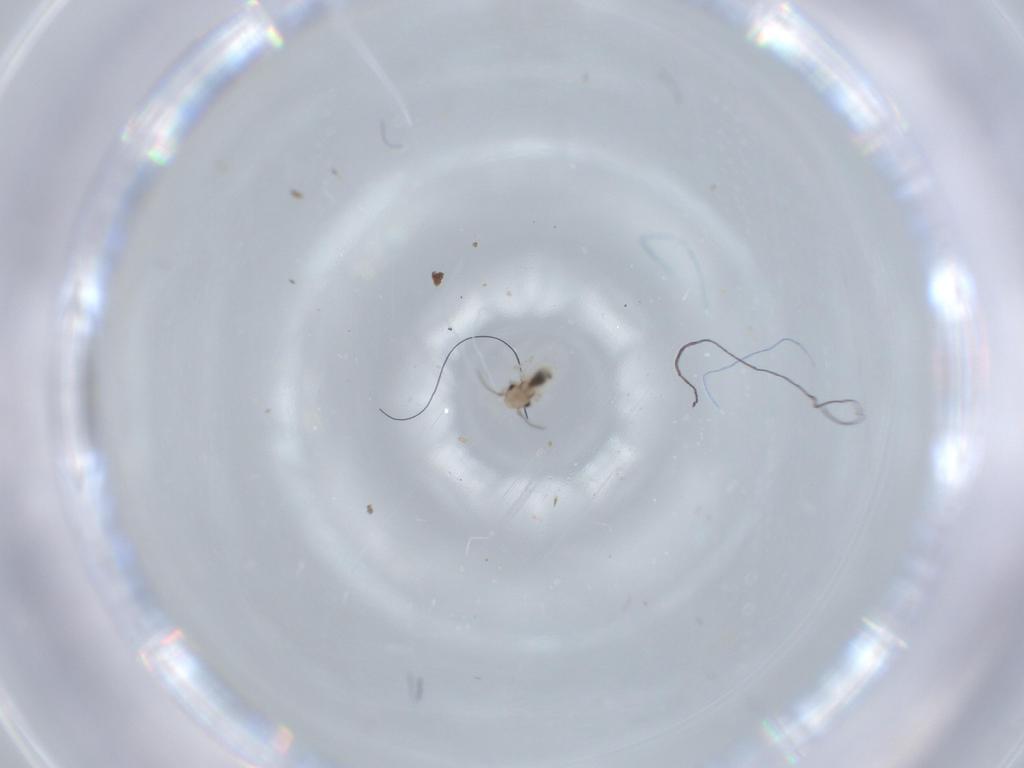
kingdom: Animalia
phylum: Arthropoda
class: Insecta
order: Psocodea
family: Lepidopsocidae
